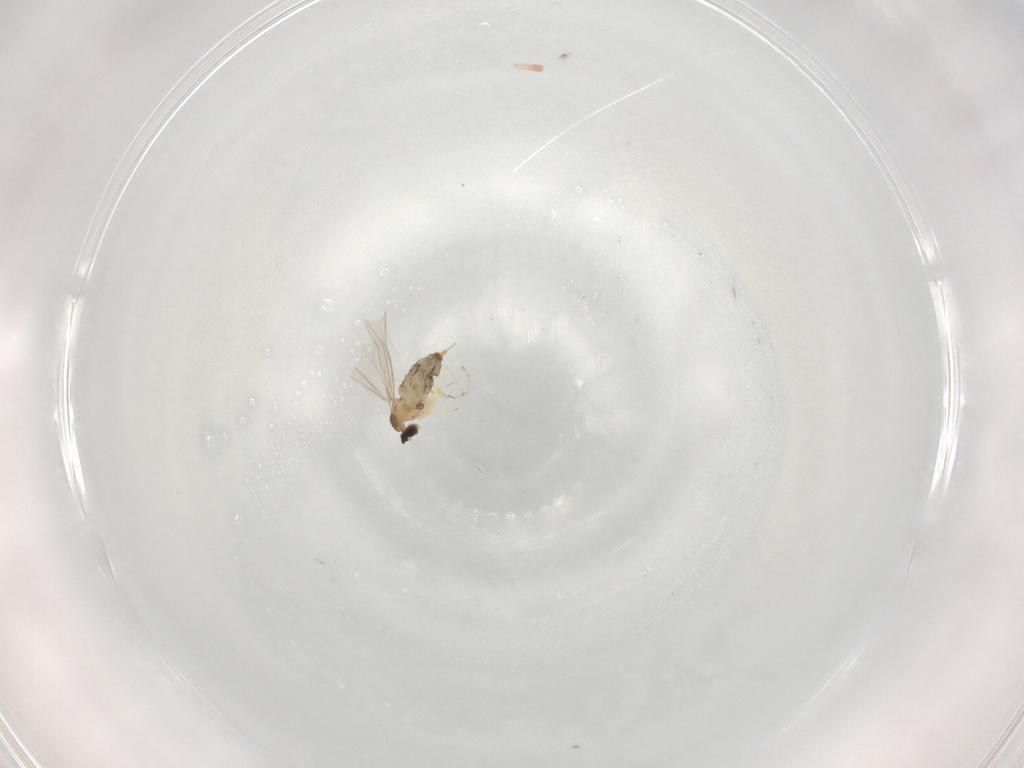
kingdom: Animalia
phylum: Arthropoda
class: Insecta
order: Diptera
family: Cecidomyiidae
